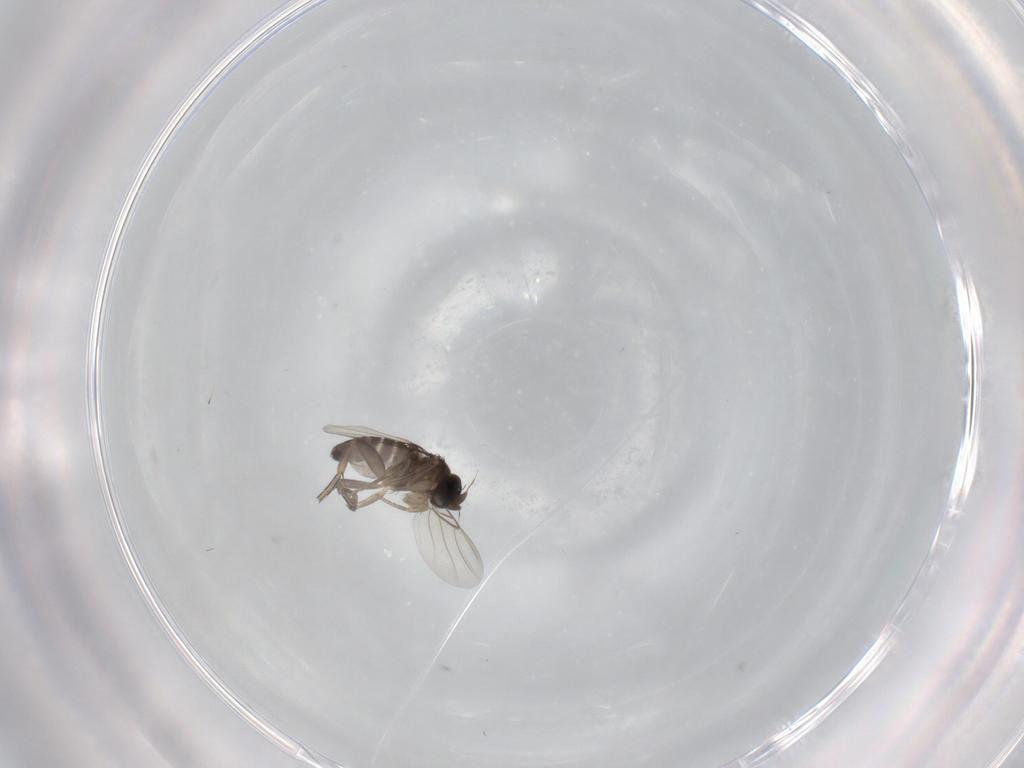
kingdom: Animalia
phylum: Arthropoda
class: Insecta
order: Diptera
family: Phoridae
